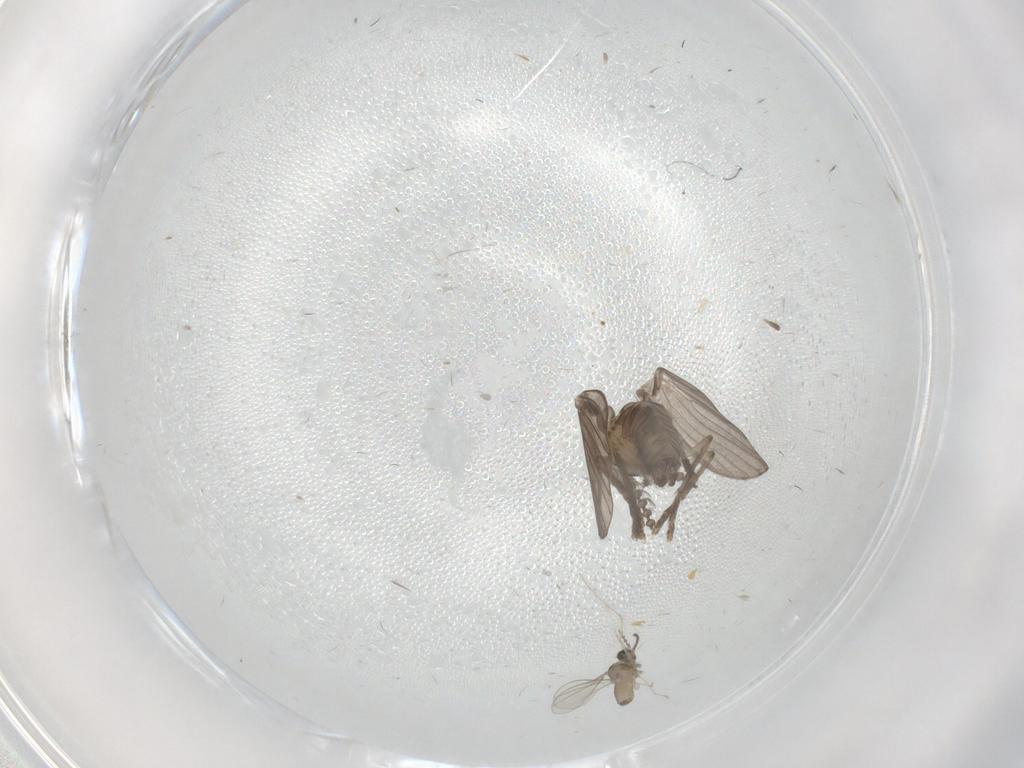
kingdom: Animalia
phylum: Arthropoda
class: Insecta
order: Diptera
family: Psychodidae
